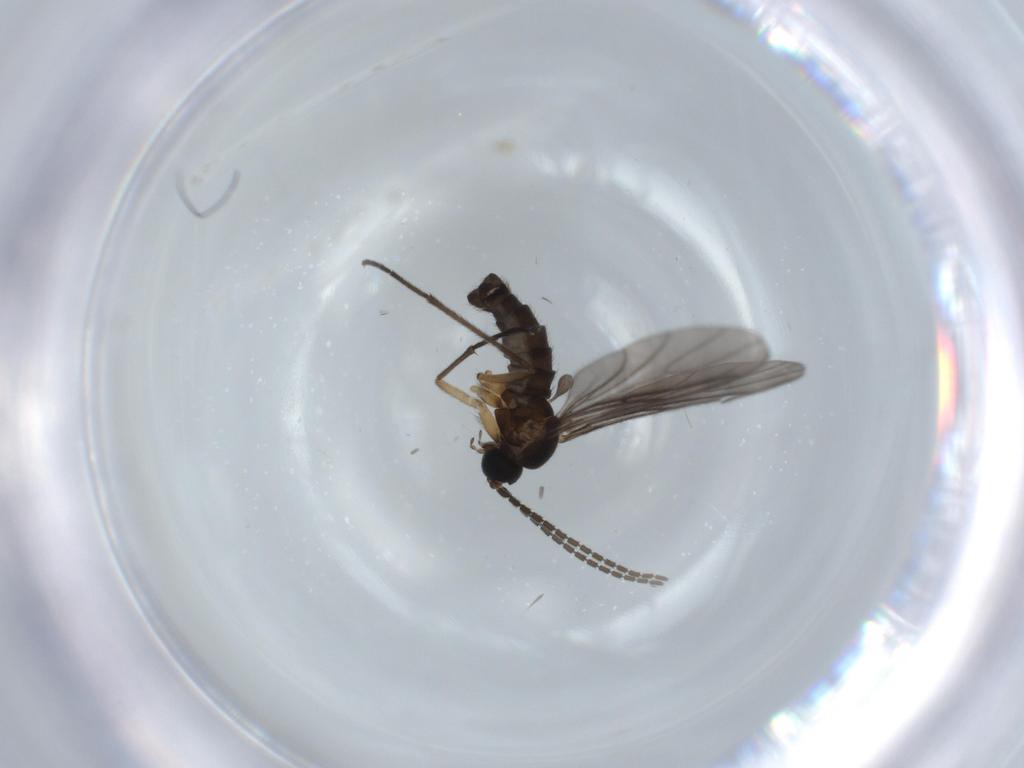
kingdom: Animalia
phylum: Arthropoda
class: Insecta
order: Diptera
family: Sciaridae
